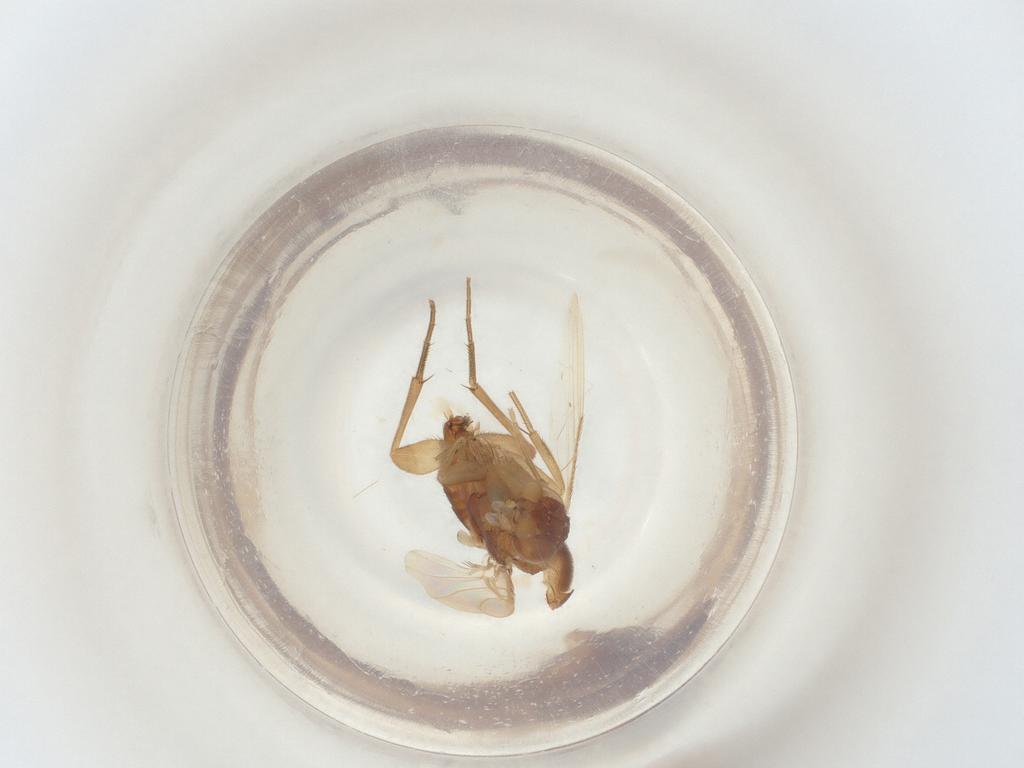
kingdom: Animalia
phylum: Arthropoda
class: Insecta
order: Diptera
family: Phoridae
